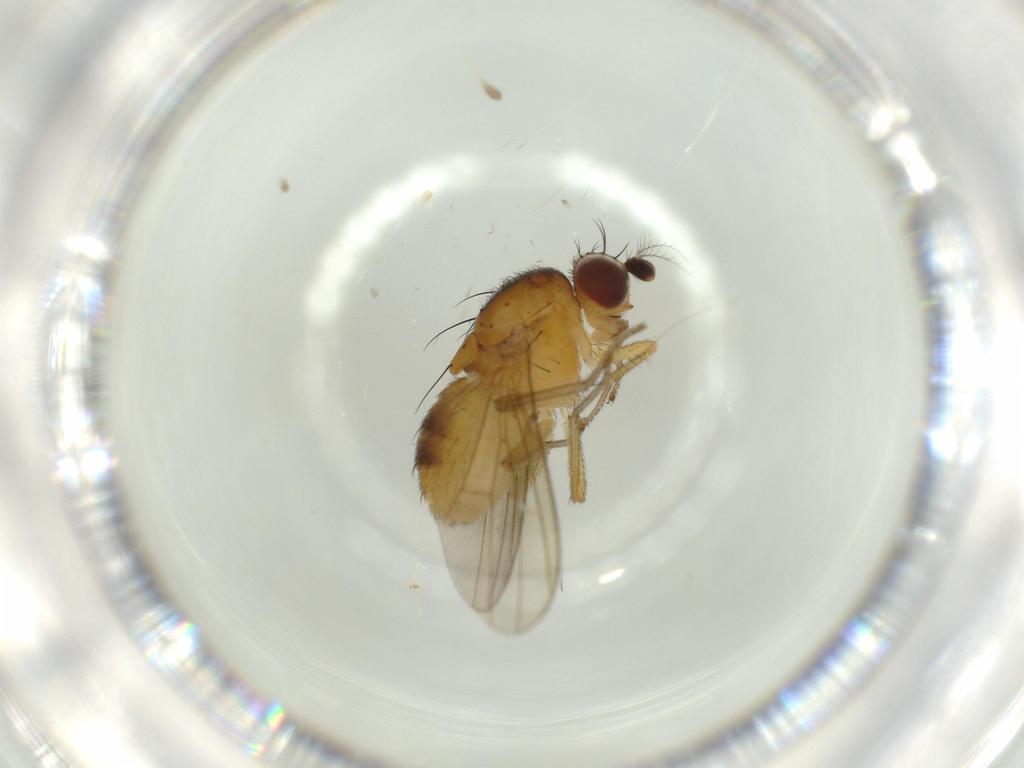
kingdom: Animalia
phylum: Arthropoda
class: Insecta
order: Diptera
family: Lauxaniidae
